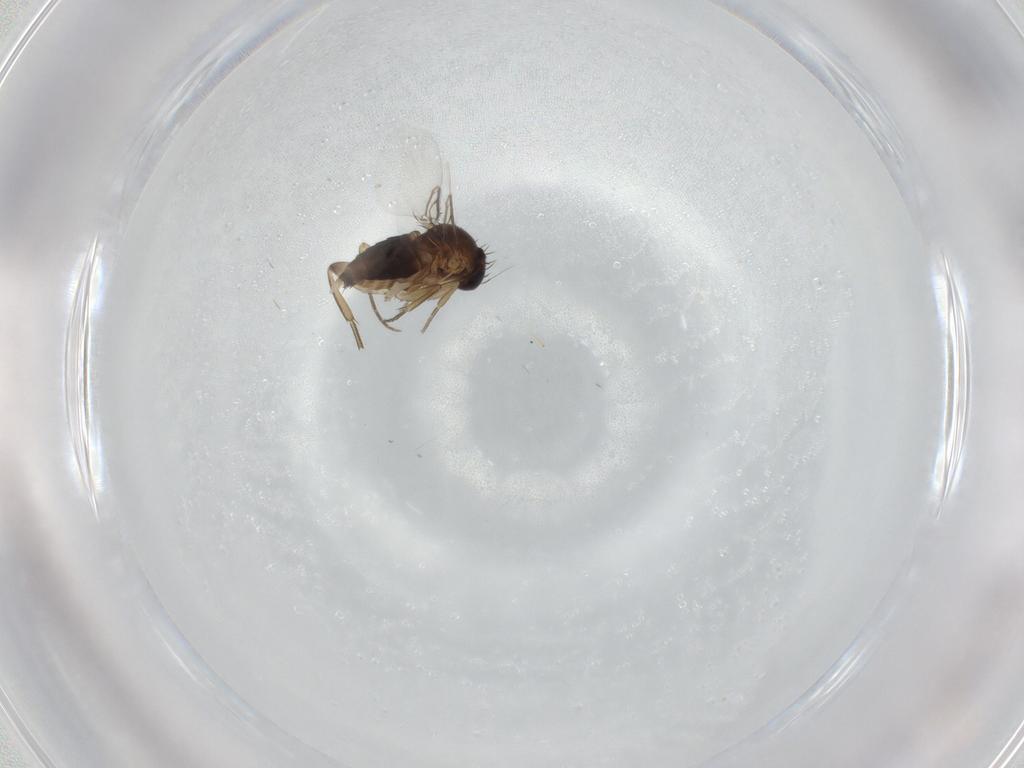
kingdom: Animalia
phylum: Arthropoda
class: Insecta
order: Diptera
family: Phoridae
